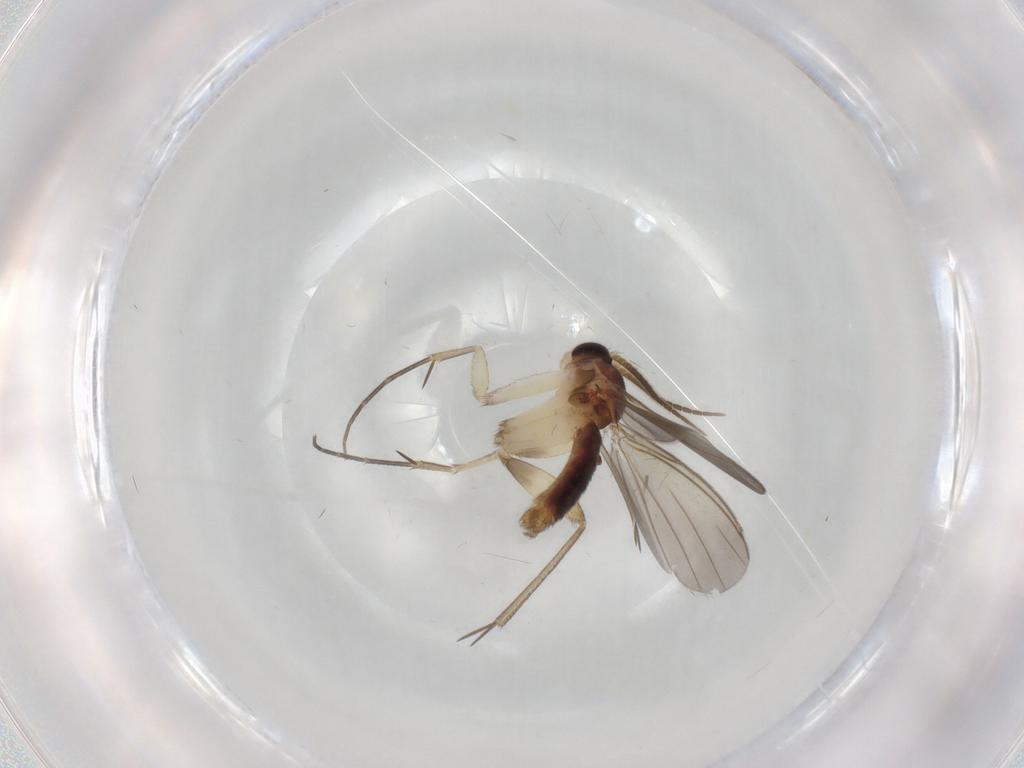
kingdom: Animalia
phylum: Arthropoda
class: Insecta
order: Diptera
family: Mycetophilidae
